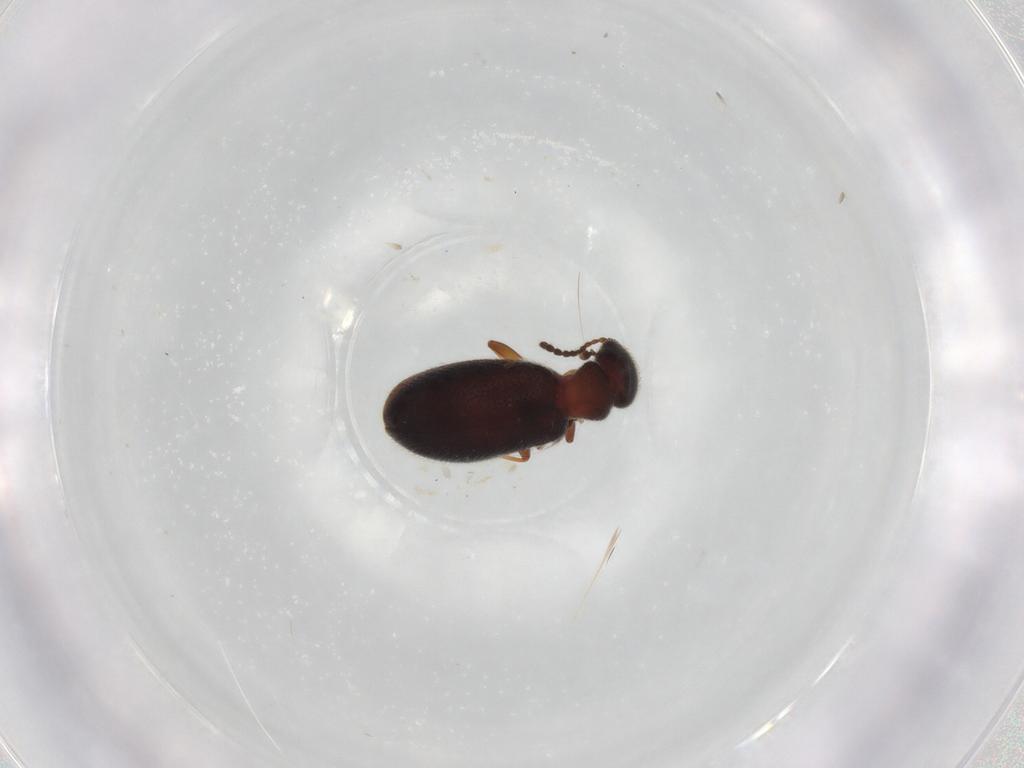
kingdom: Animalia
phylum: Arthropoda
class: Insecta
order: Coleoptera
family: Anthicidae
